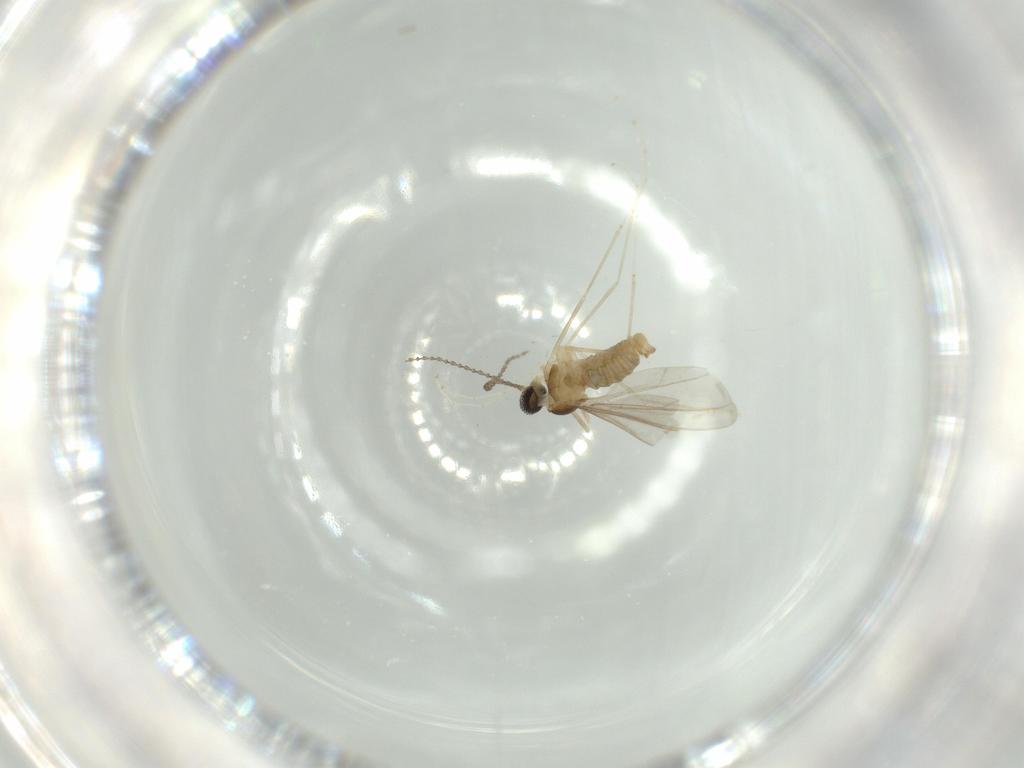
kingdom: Animalia
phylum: Arthropoda
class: Insecta
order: Diptera
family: Cecidomyiidae
